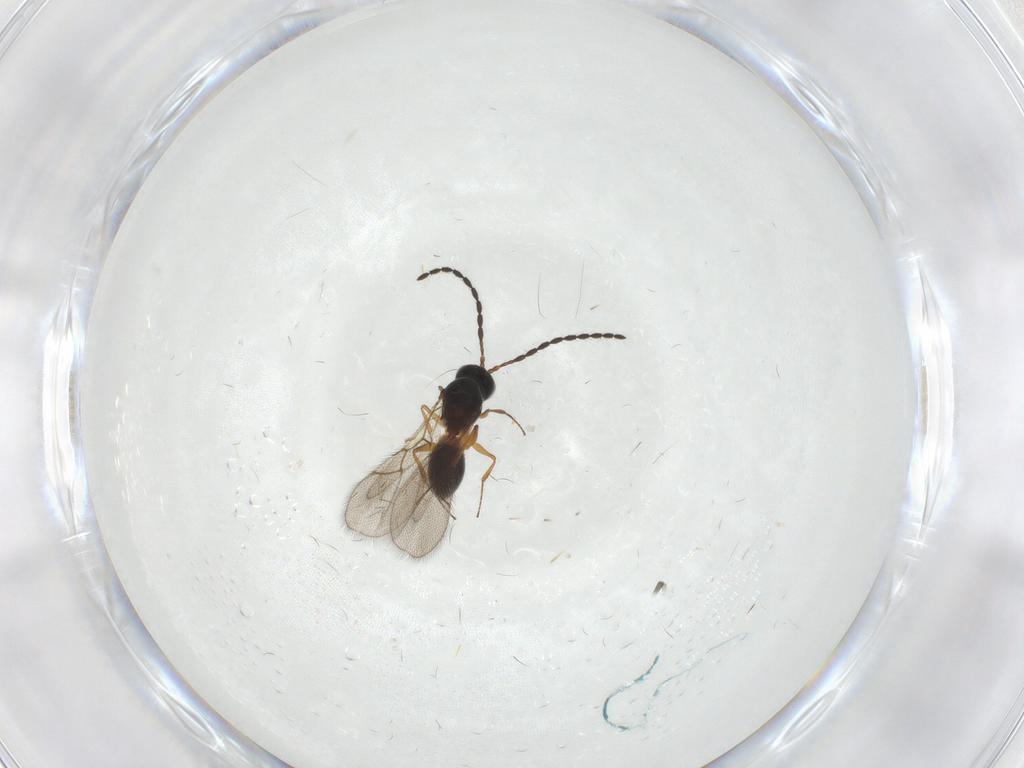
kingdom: Animalia
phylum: Arthropoda
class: Insecta
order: Hymenoptera
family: Figitidae
